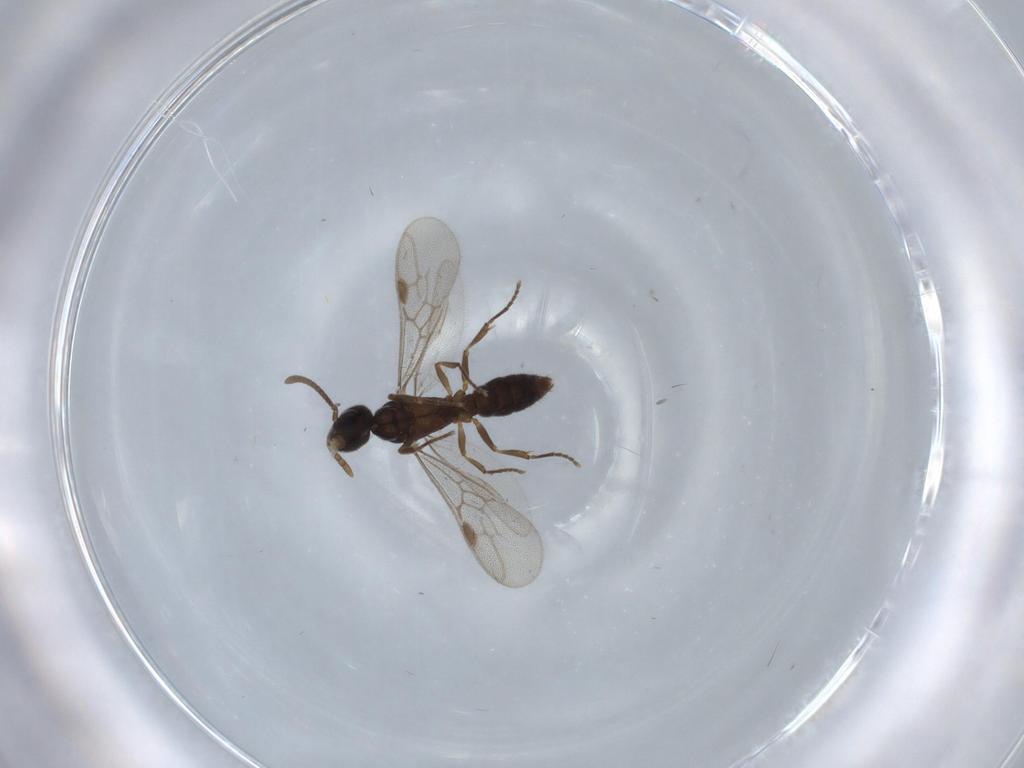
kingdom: Animalia
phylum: Arthropoda
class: Insecta
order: Hymenoptera
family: Formicidae
